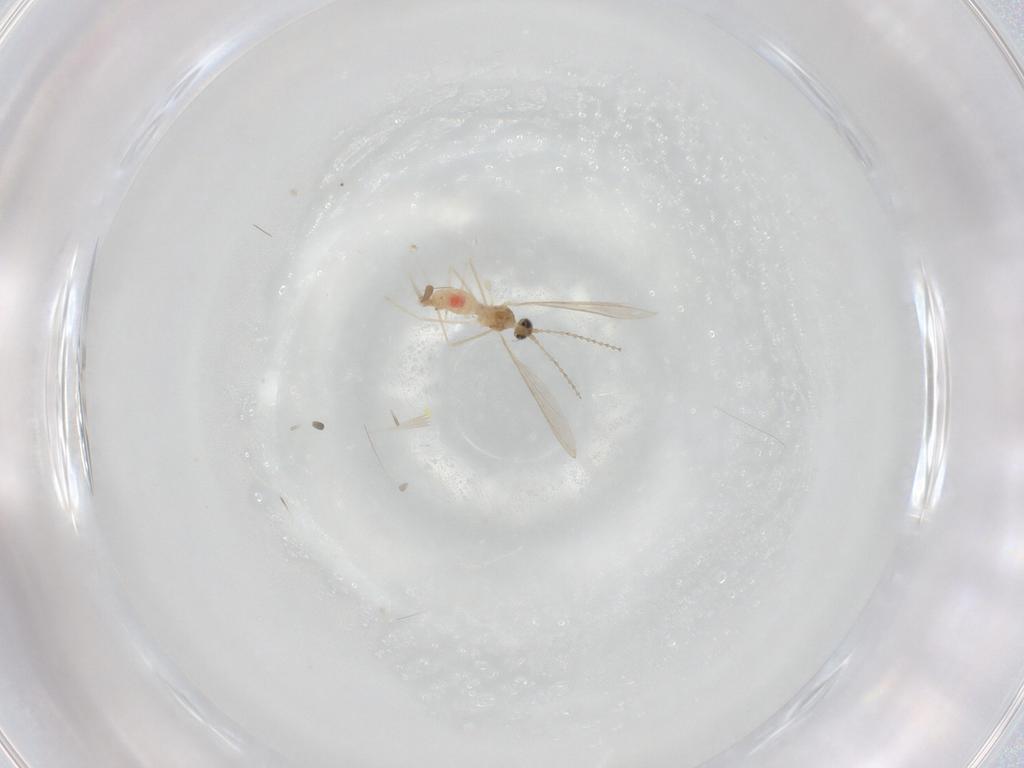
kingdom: Animalia
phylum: Arthropoda
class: Insecta
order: Diptera
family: Cecidomyiidae
